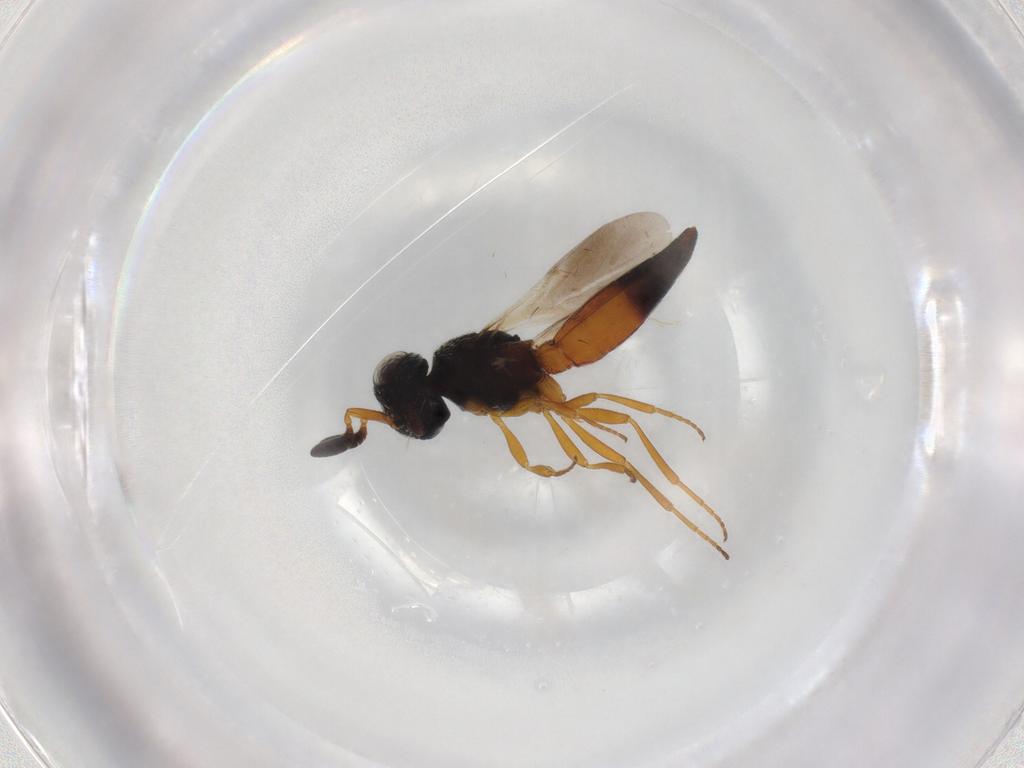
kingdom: Animalia
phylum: Arthropoda
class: Insecta
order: Hymenoptera
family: Scelionidae
